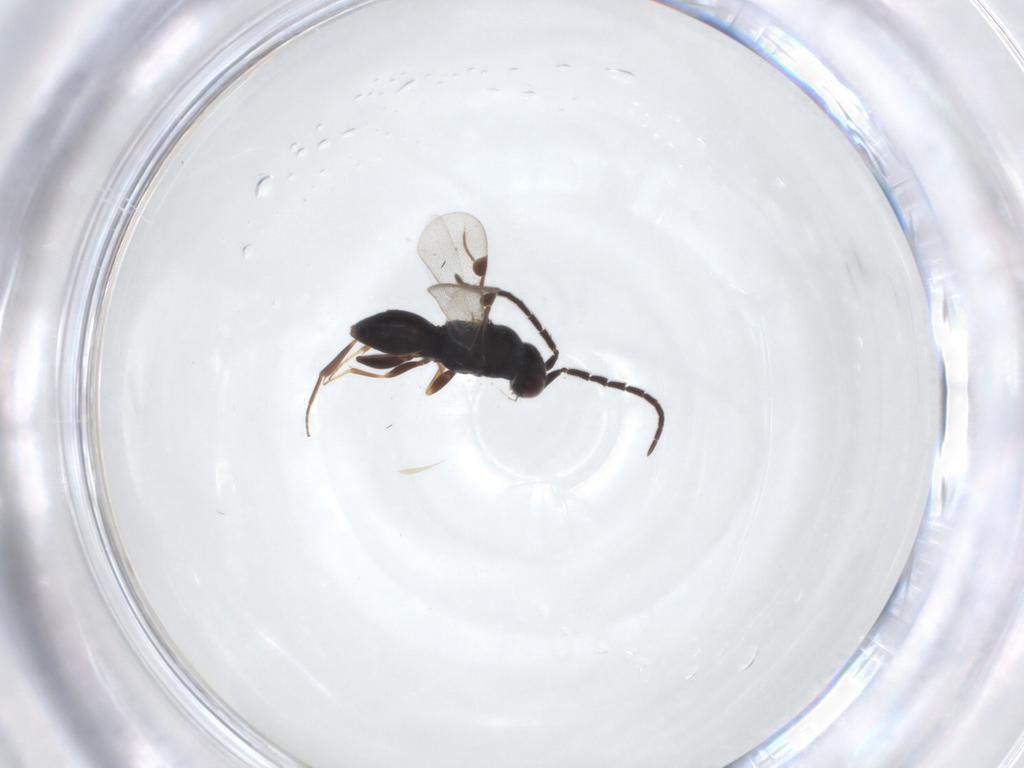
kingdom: Animalia
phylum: Arthropoda
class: Insecta
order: Hymenoptera
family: Megaspilidae
